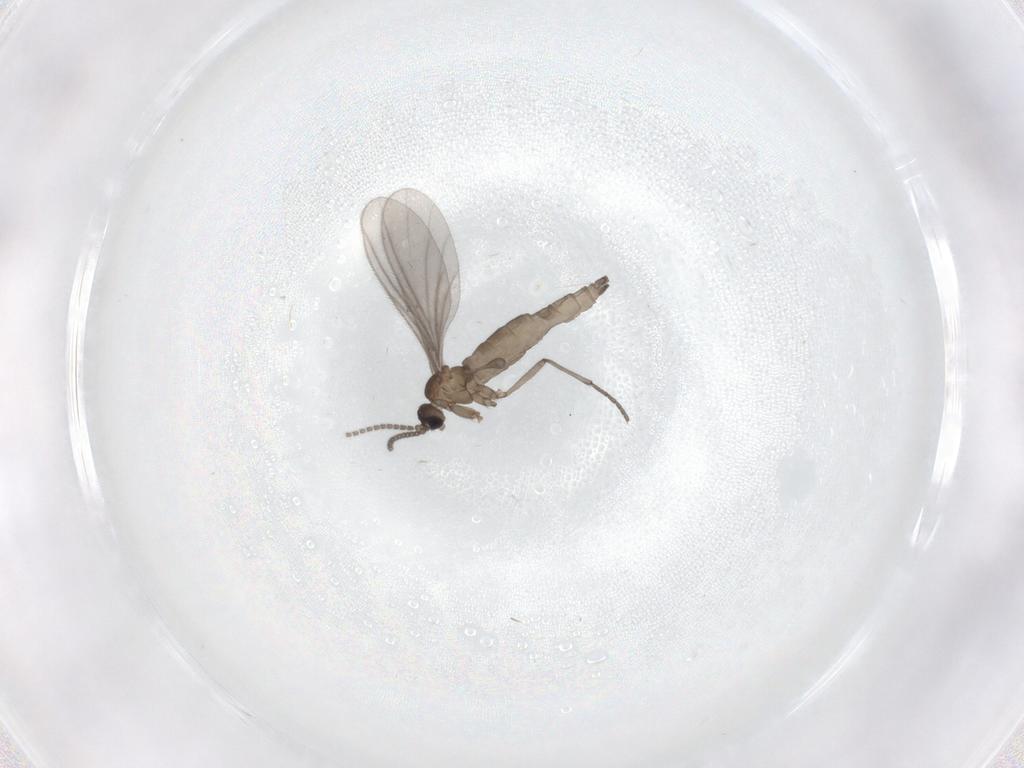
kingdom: Animalia
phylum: Arthropoda
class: Insecta
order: Diptera
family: Sciaridae
